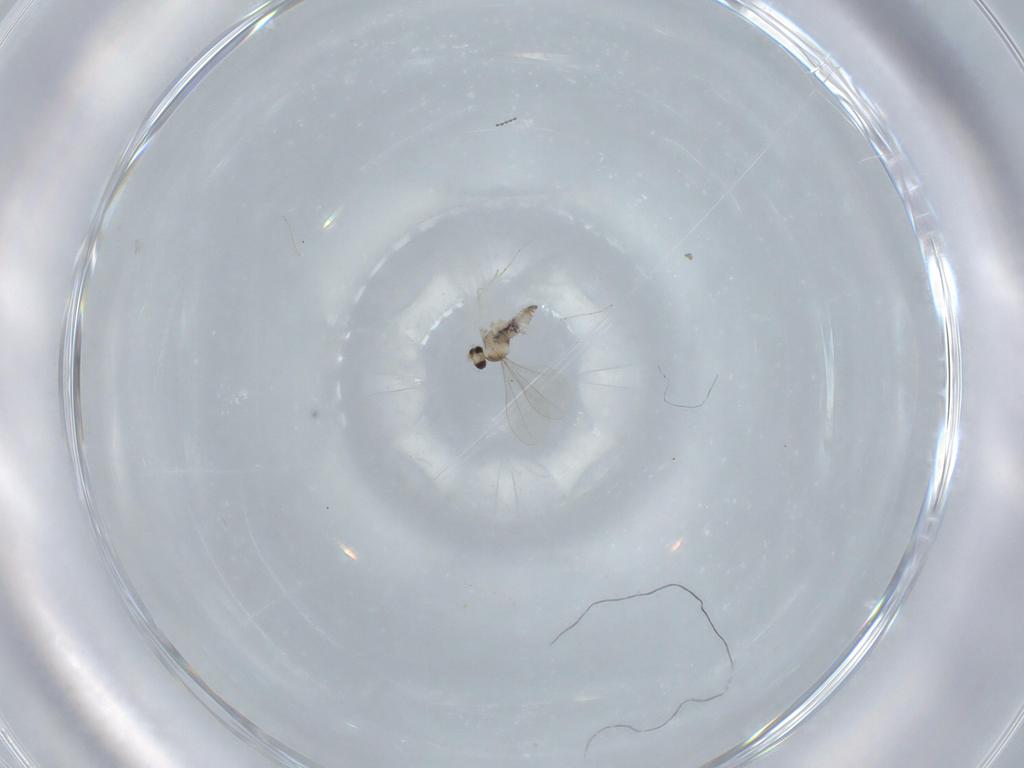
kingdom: Animalia
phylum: Arthropoda
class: Insecta
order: Diptera
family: Cecidomyiidae
